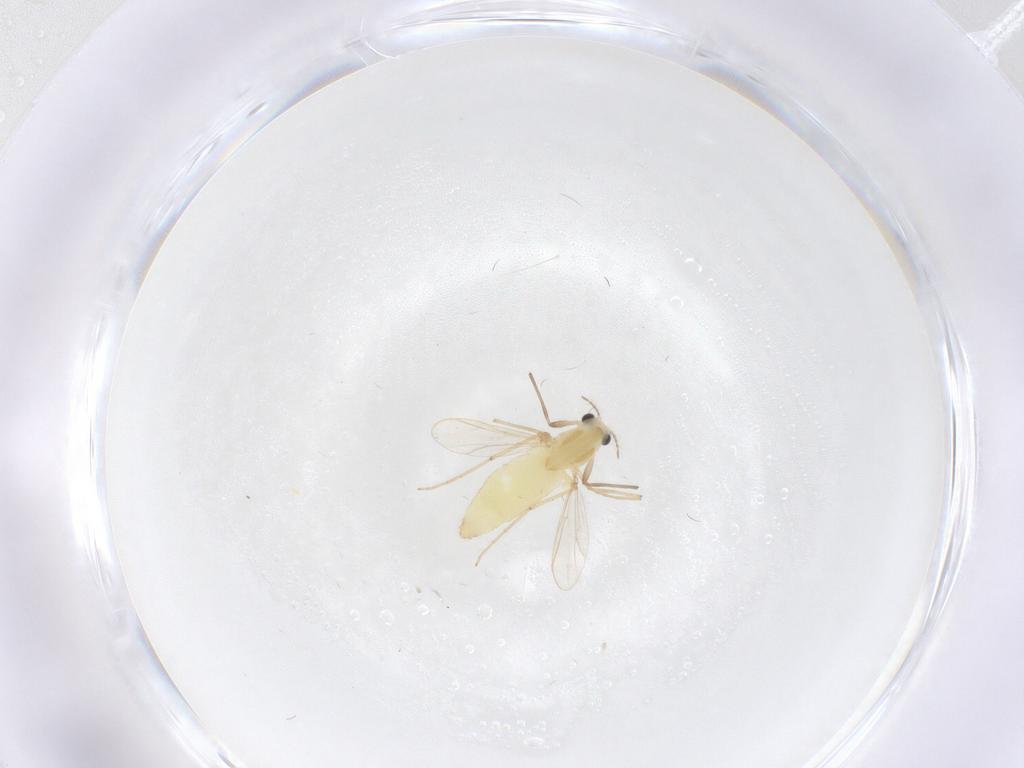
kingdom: Animalia
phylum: Arthropoda
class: Insecta
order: Diptera
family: Chironomidae
